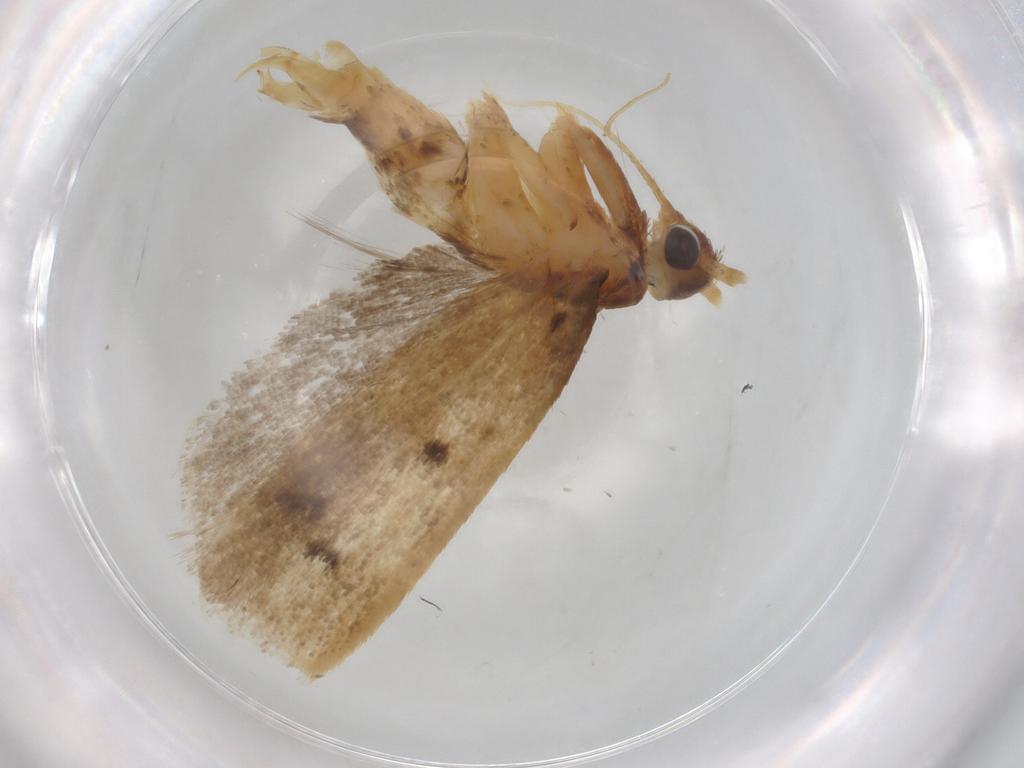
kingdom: Animalia
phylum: Arthropoda
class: Insecta
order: Lepidoptera
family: Lecithoceridae
